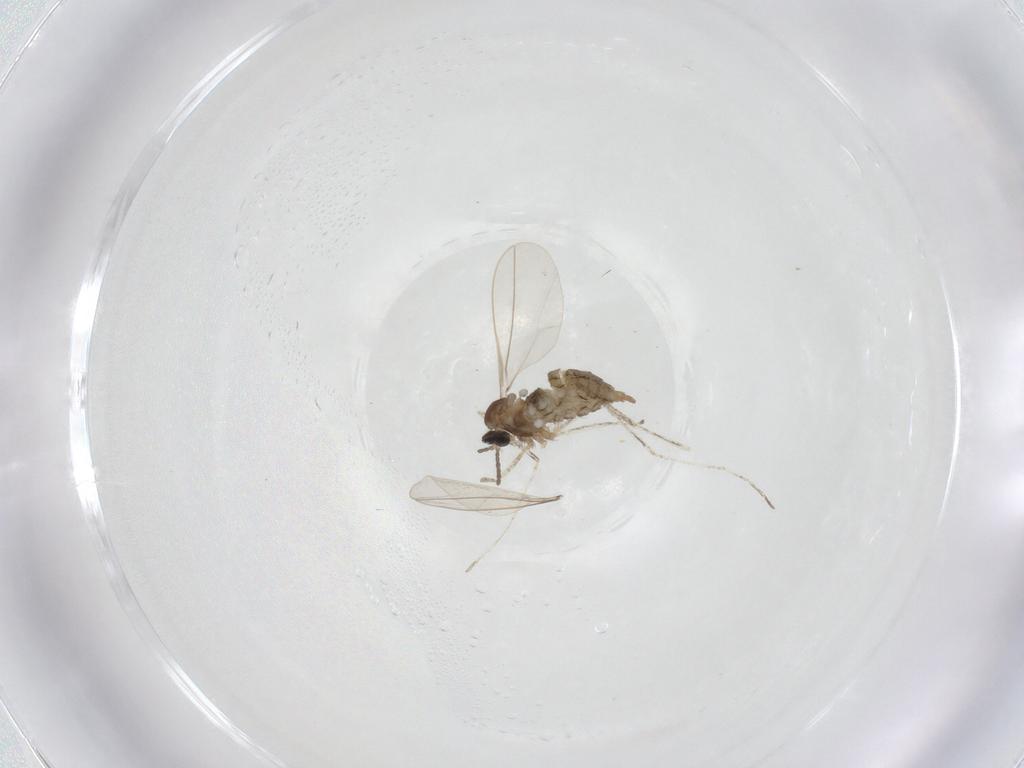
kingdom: Animalia
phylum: Arthropoda
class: Insecta
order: Diptera
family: Cecidomyiidae
